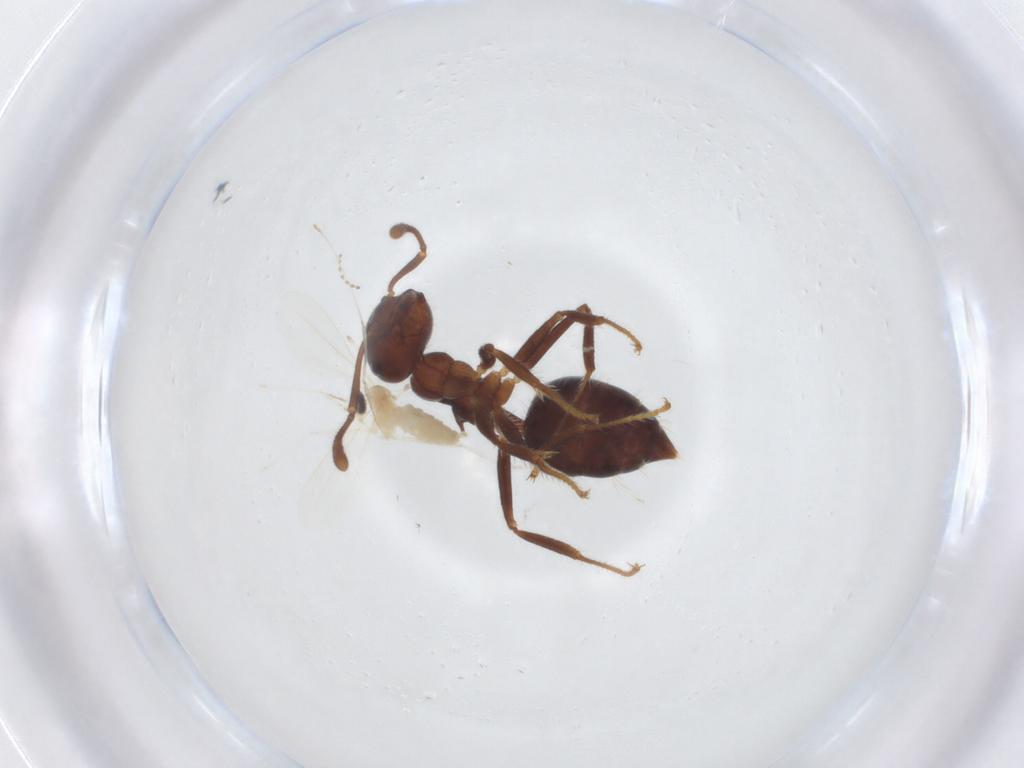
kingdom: Animalia
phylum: Arthropoda
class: Insecta
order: Hymenoptera
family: Formicidae
